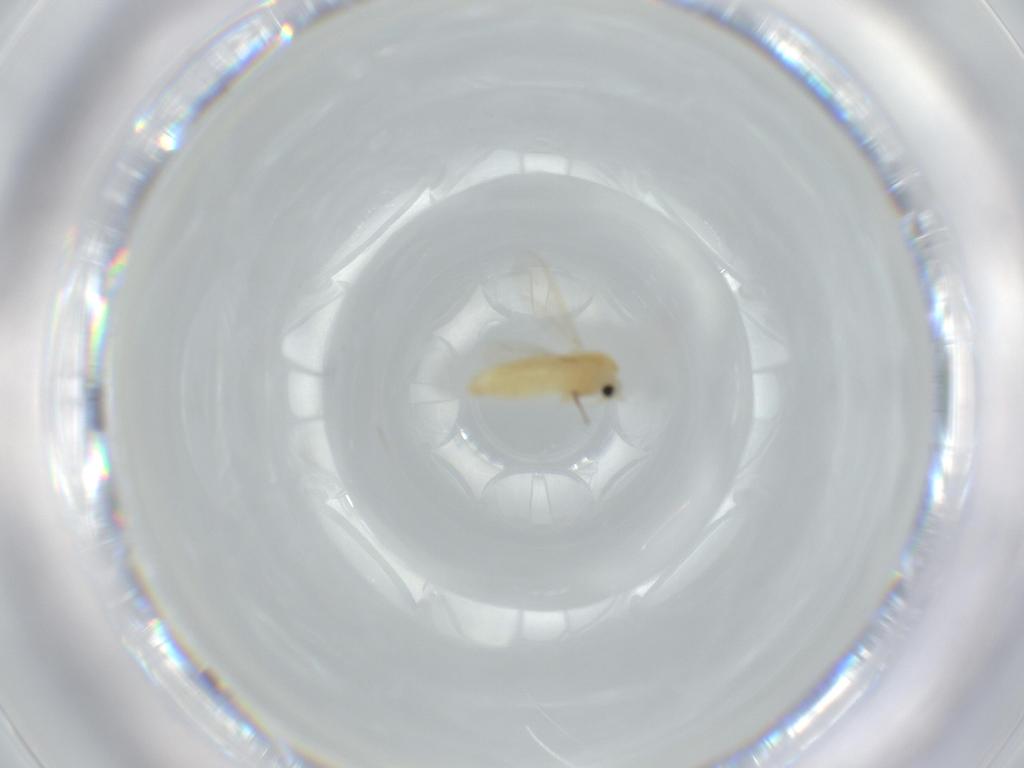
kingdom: Animalia
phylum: Arthropoda
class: Insecta
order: Diptera
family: Chironomidae
